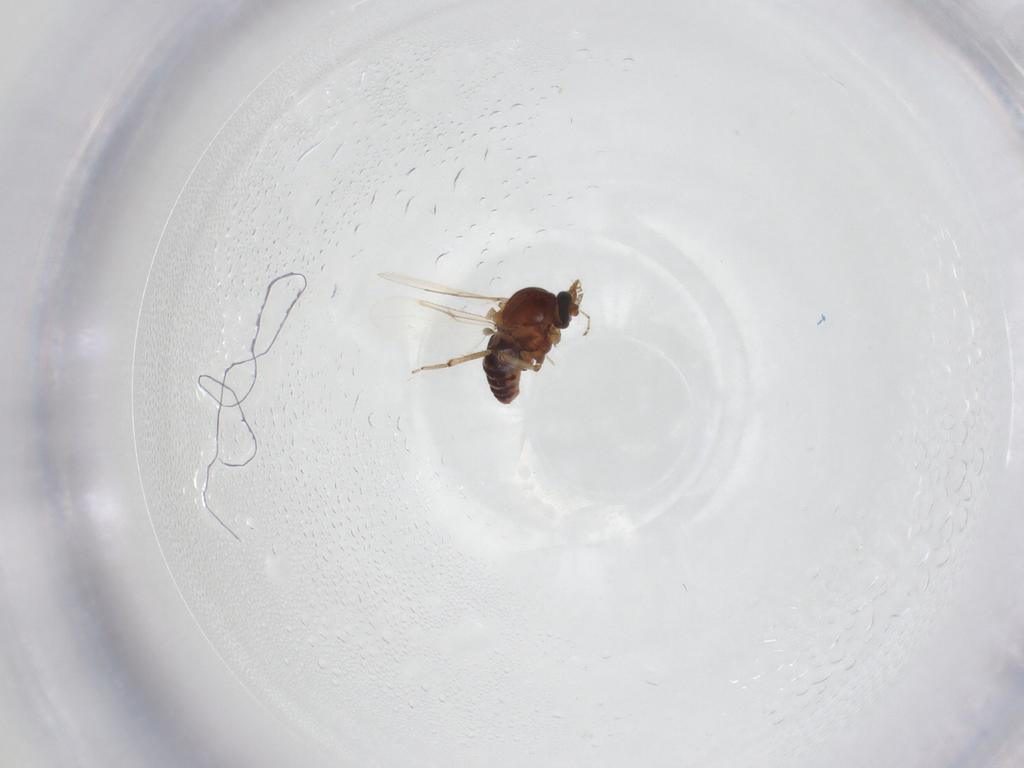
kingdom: Animalia
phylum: Arthropoda
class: Insecta
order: Diptera
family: Ceratopogonidae
